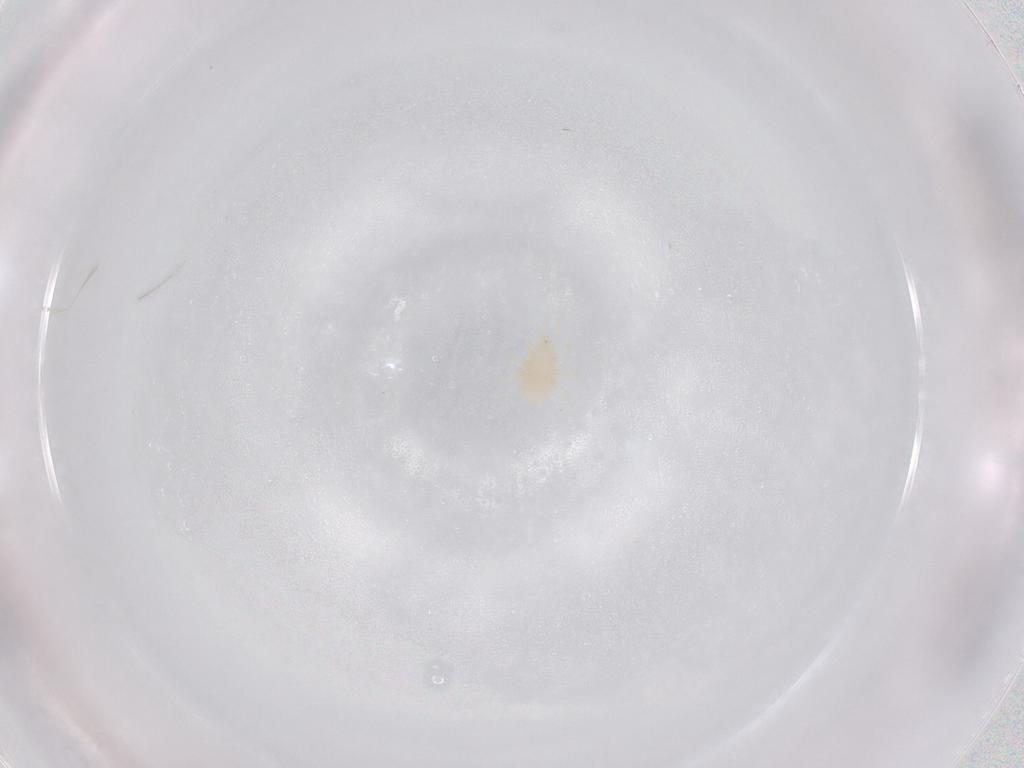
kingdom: Animalia
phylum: Arthropoda
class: Arachnida
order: Mesostigmata
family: Laelapidae
